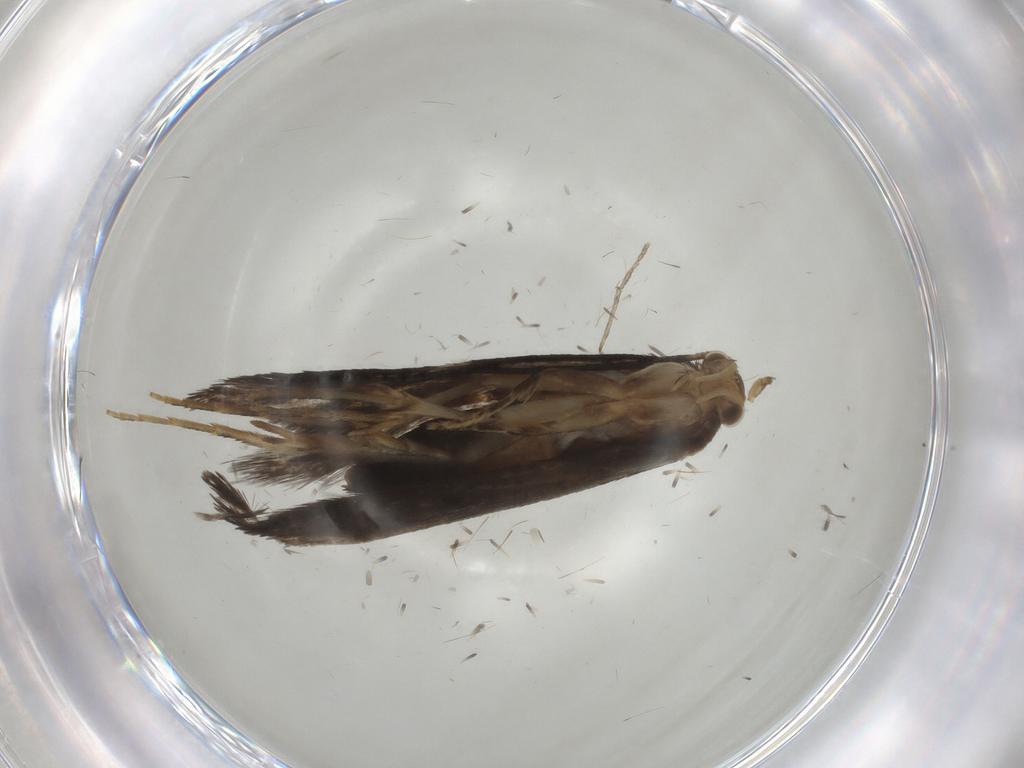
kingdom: Animalia
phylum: Arthropoda
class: Insecta
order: Lepidoptera
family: Tineidae
